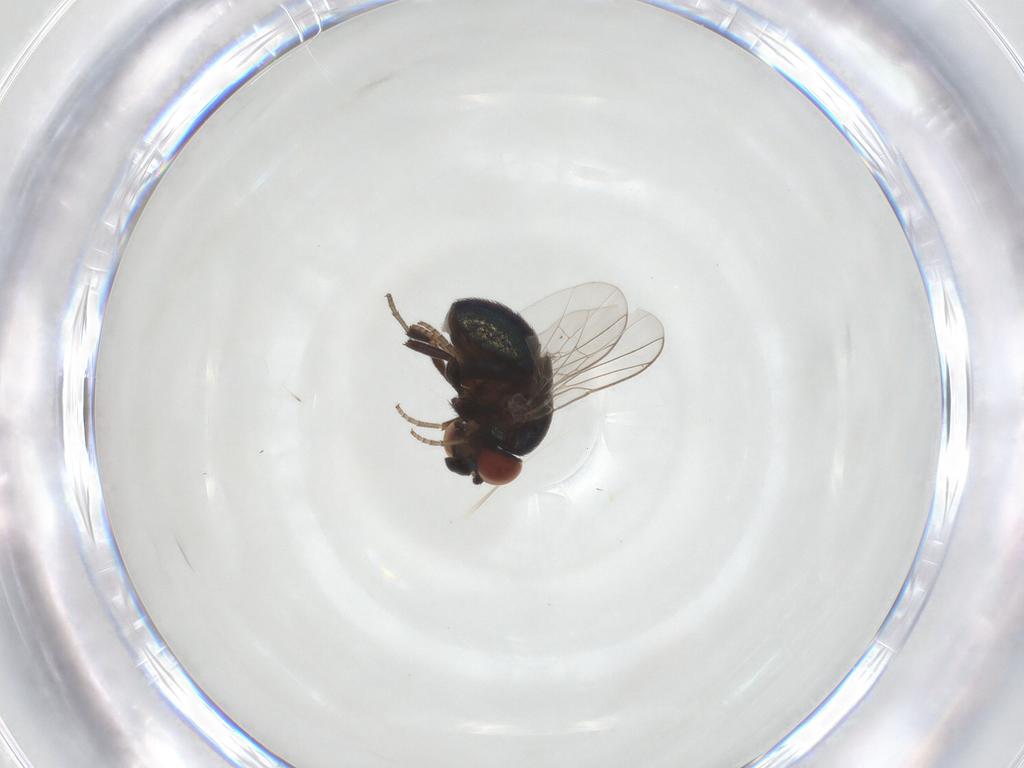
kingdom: Animalia
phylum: Arthropoda
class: Insecta
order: Diptera
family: Cryptochetidae
